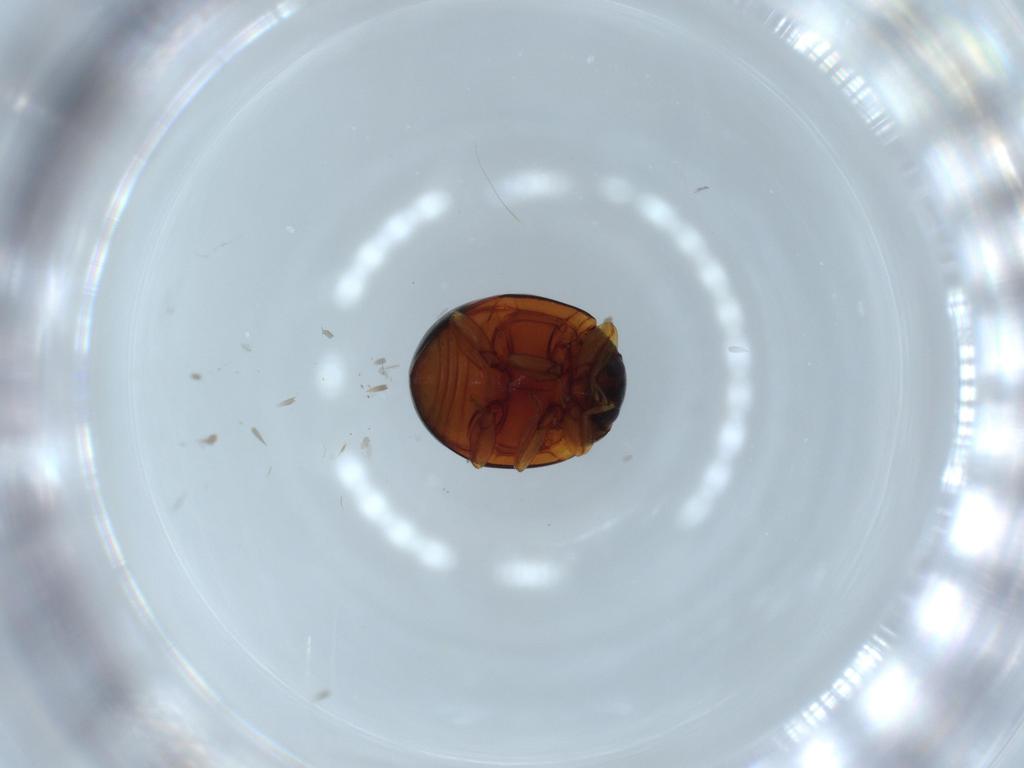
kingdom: Animalia
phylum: Arthropoda
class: Insecta
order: Coleoptera
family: Coccinellidae
